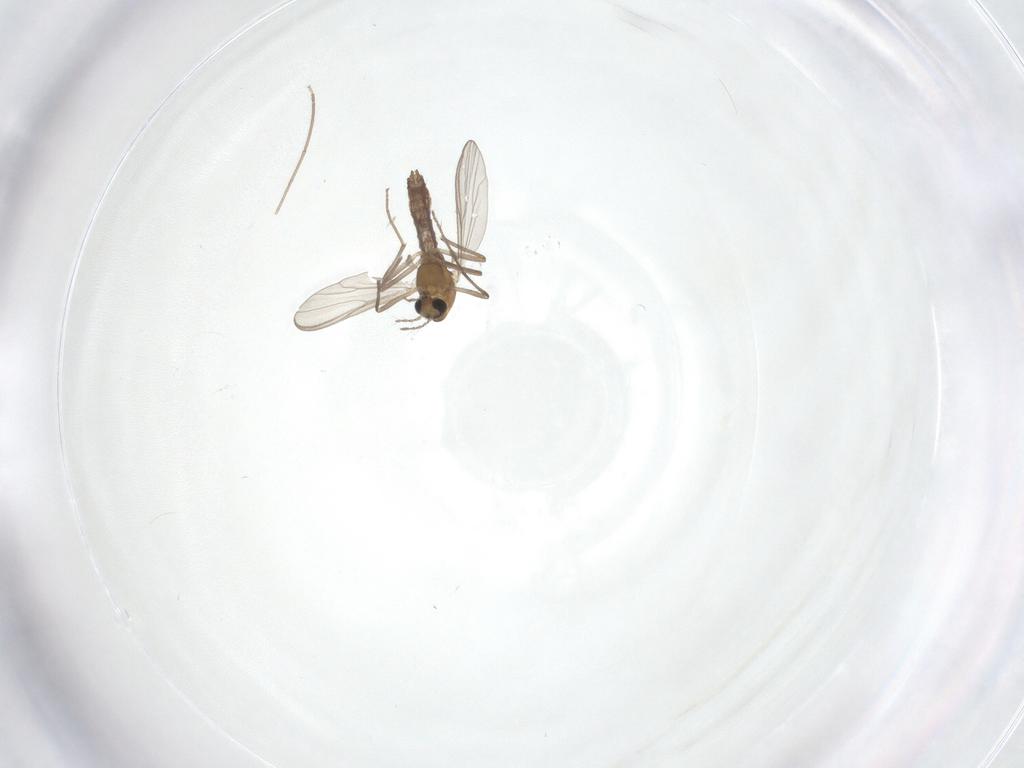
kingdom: Animalia
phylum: Arthropoda
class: Insecta
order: Diptera
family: Chironomidae
